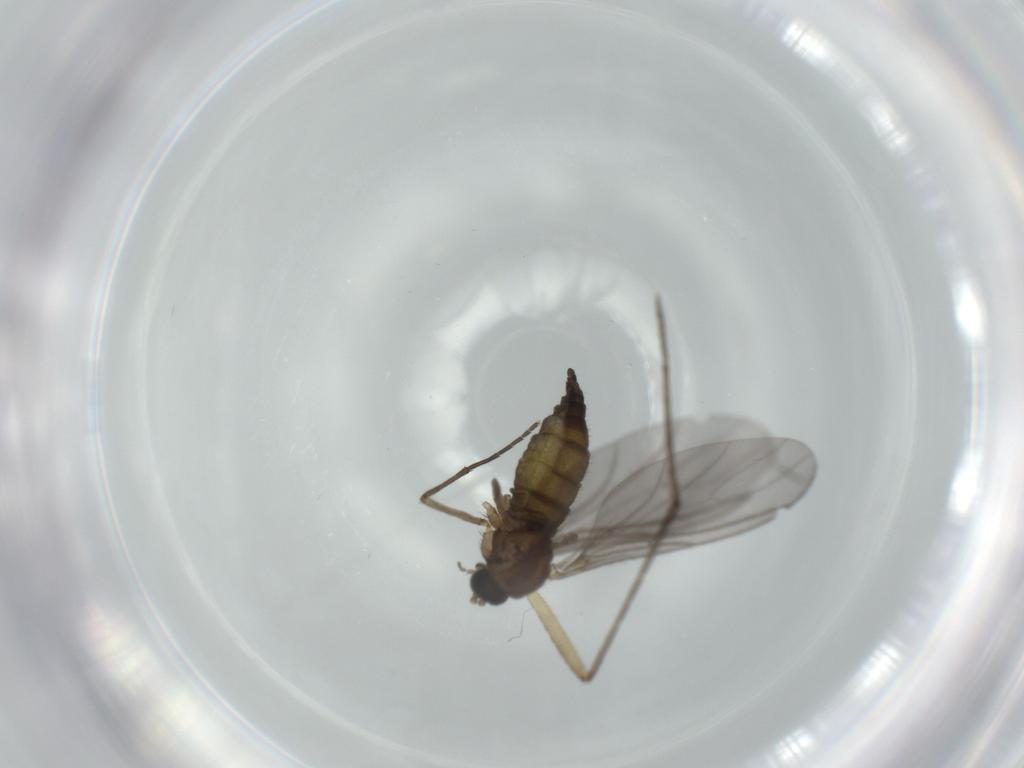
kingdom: Animalia
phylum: Arthropoda
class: Insecta
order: Diptera
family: Sciaridae
